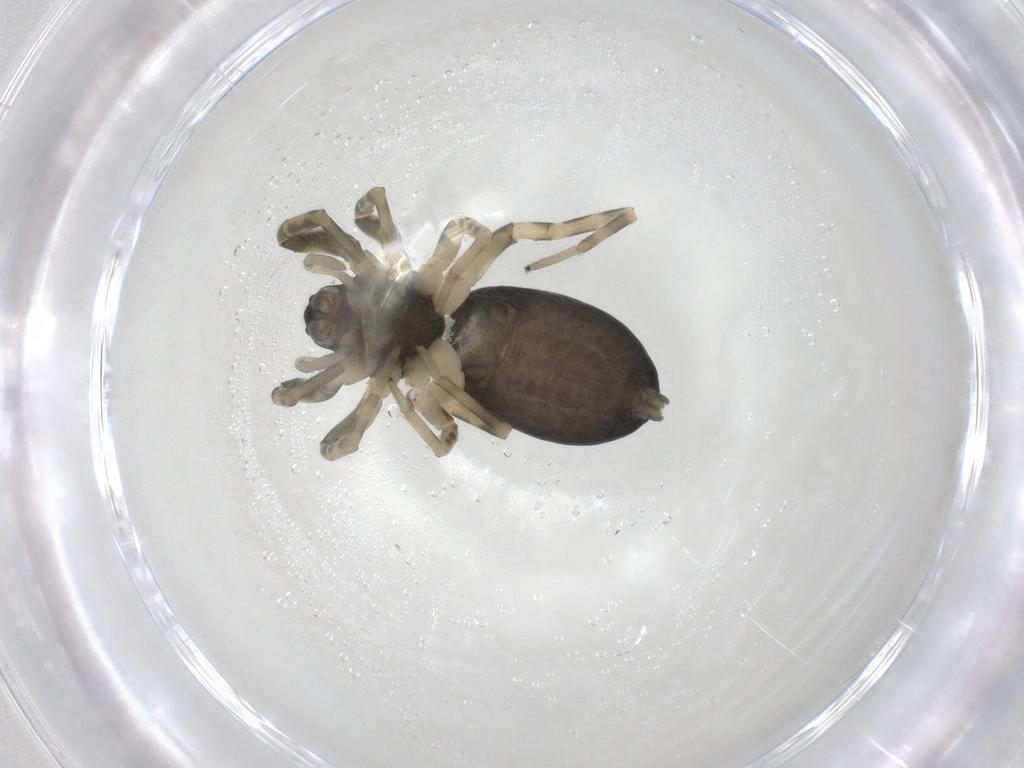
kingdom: Animalia
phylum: Arthropoda
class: Arachnida
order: Araneae
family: Trachelidae
